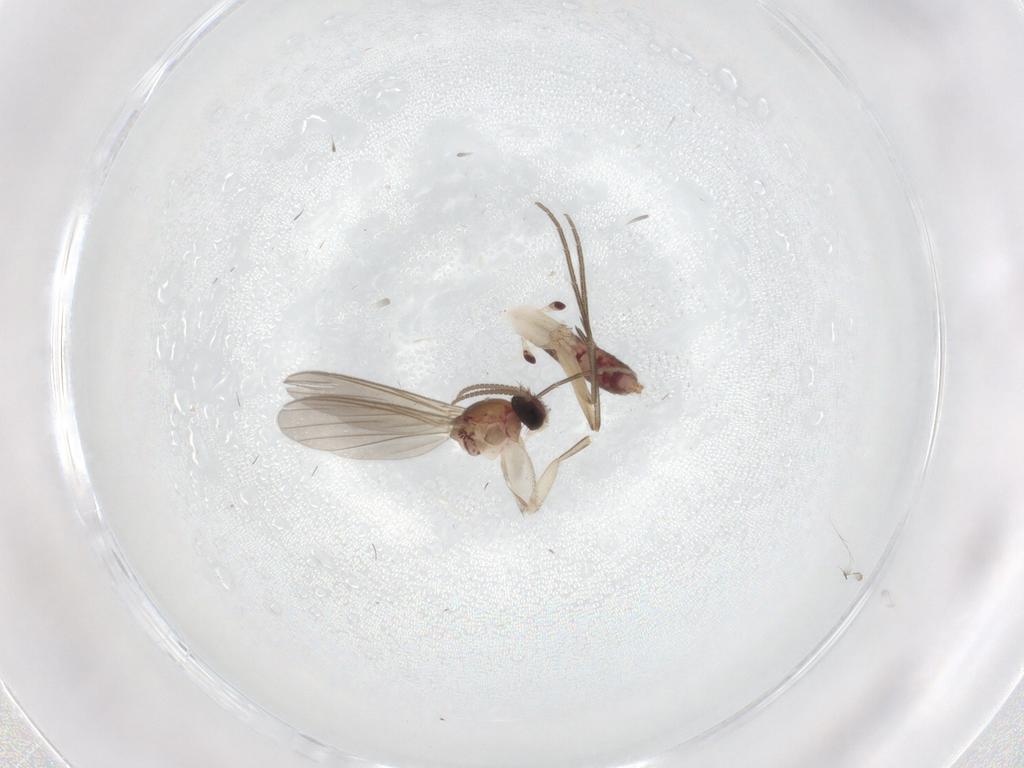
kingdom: Animalia
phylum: Arthropoda
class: Insecta
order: Diptera
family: Mycetophilidae
